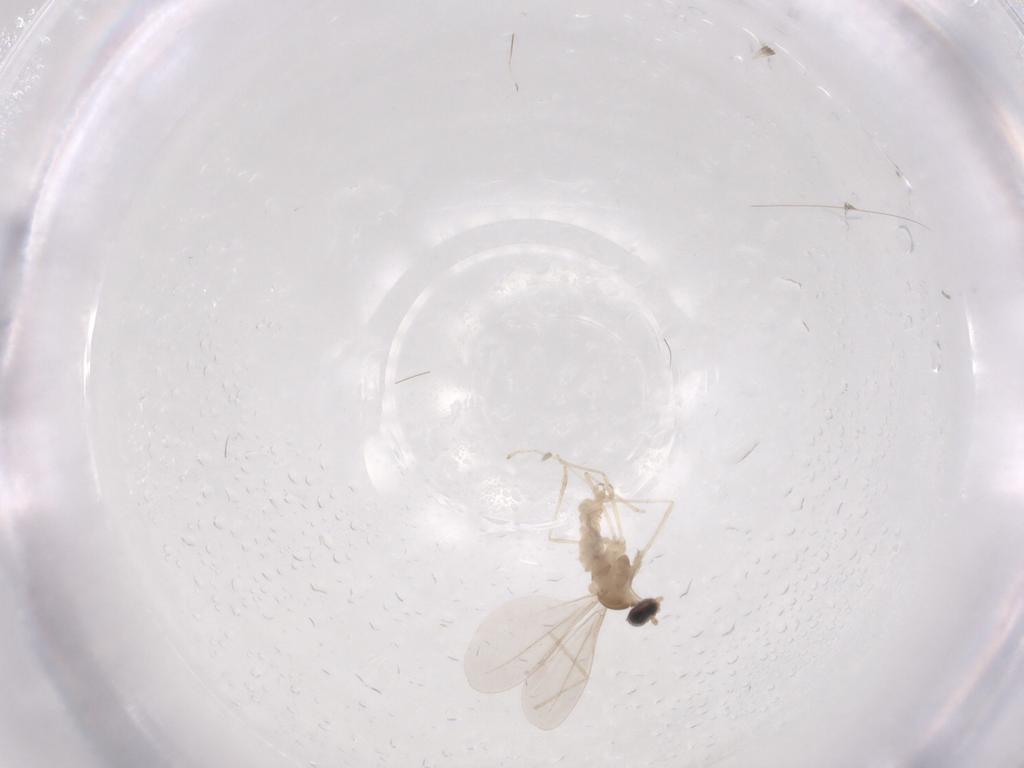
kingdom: Animalia
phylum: Arthropoda
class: Insecta
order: Diptera
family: Cecidomyiidae
